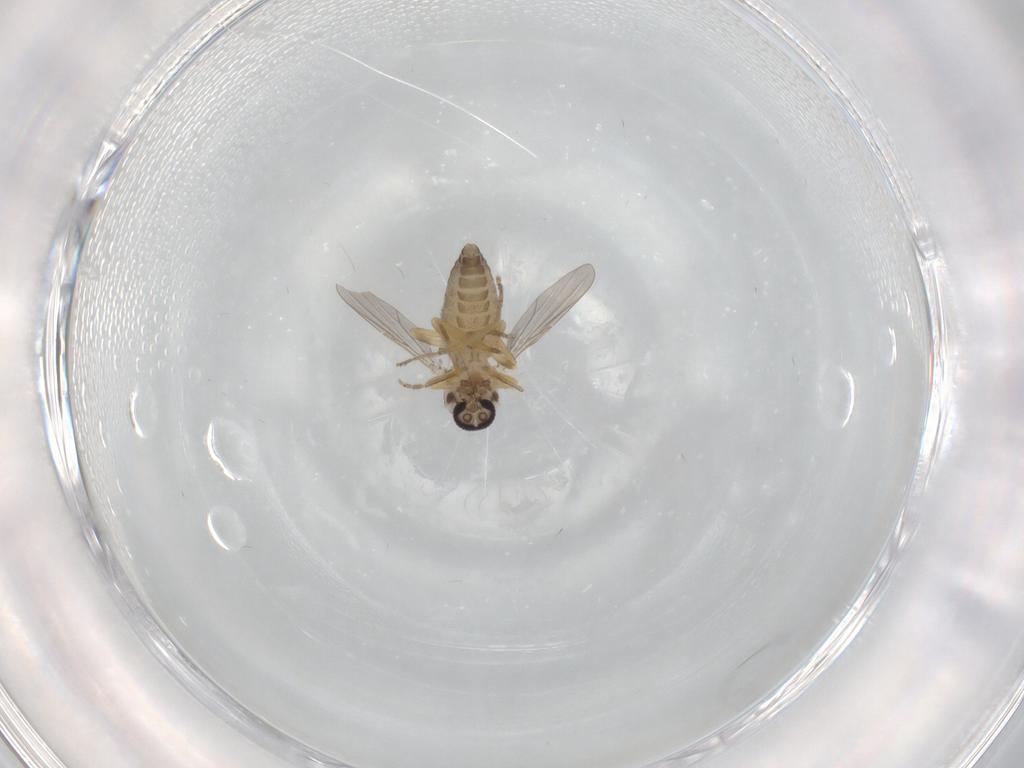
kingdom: Animalia
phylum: Arthropoda
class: Insecta
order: Diptera
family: Ceratopogonidae
